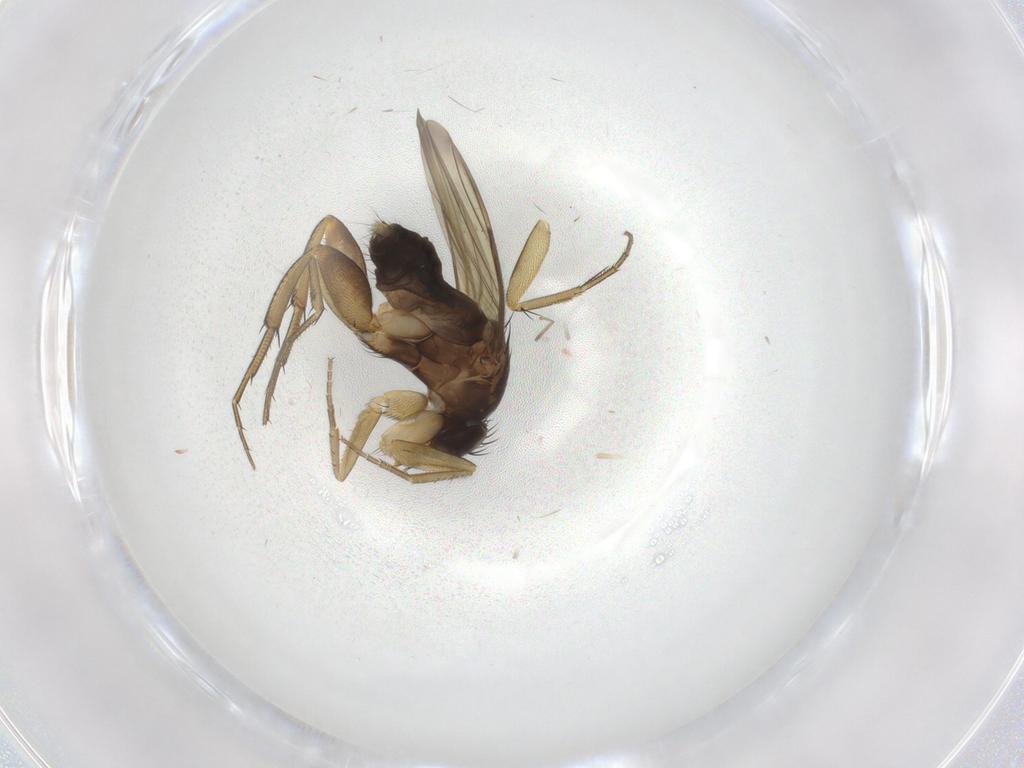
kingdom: Animalia
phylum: Arthropoda
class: Insecta
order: Diptera
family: Phoridae
